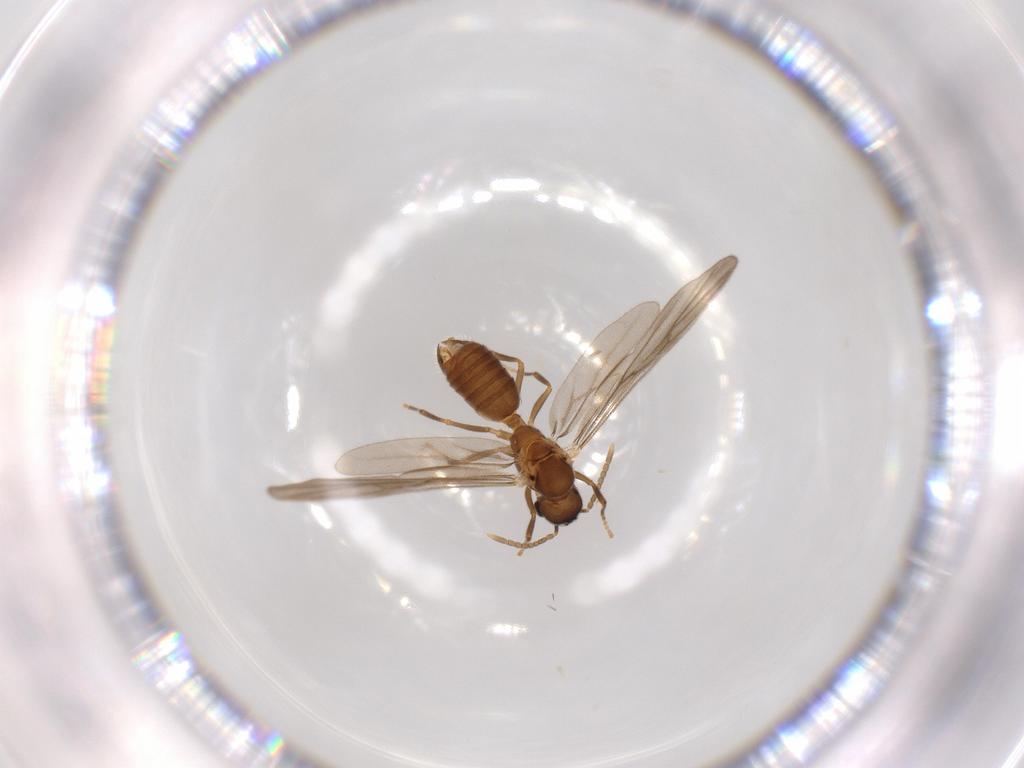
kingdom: Animalia
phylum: Arthropoda
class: Insecta
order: Hymenoptera
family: Formicidae
